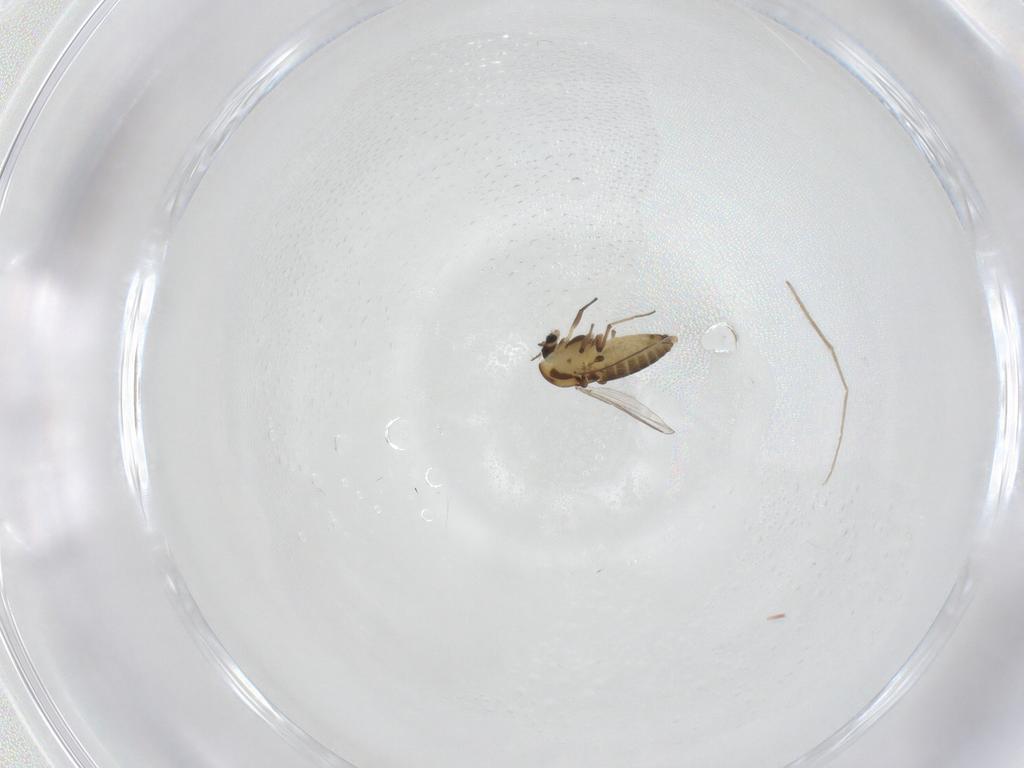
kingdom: Animalia
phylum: Arthropoda
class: Insecta
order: Diptera
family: Chironomidae
